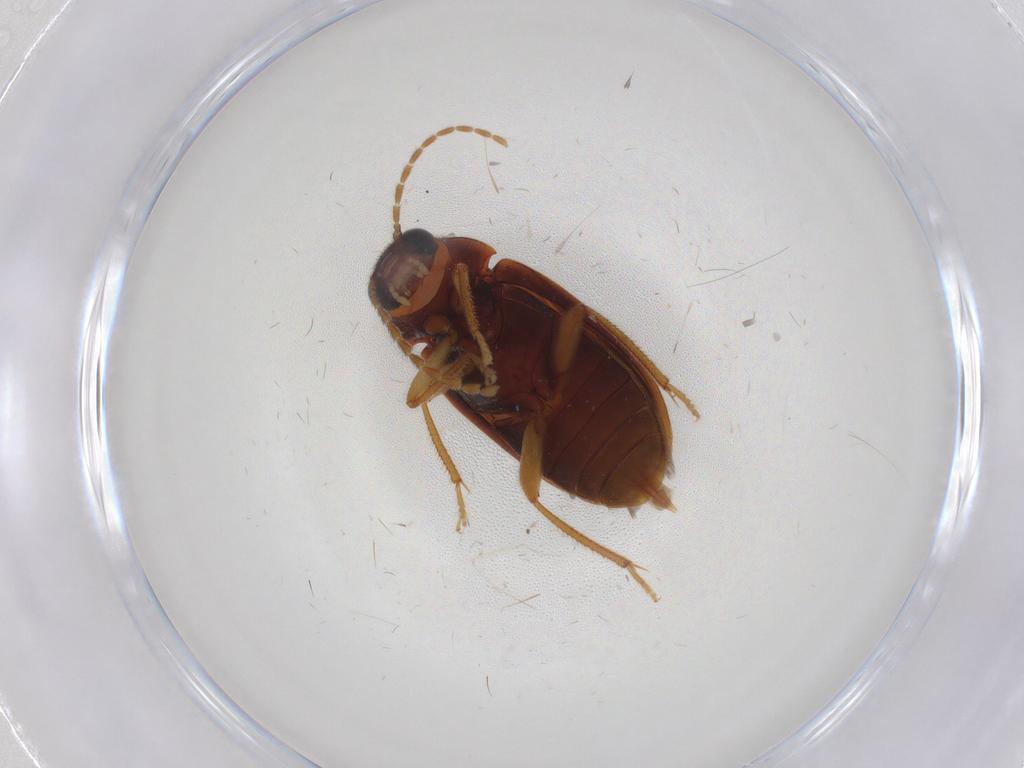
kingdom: Animalia
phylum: Arthropoda
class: Insecta
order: Coleoptera
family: Ptilodactylidae
